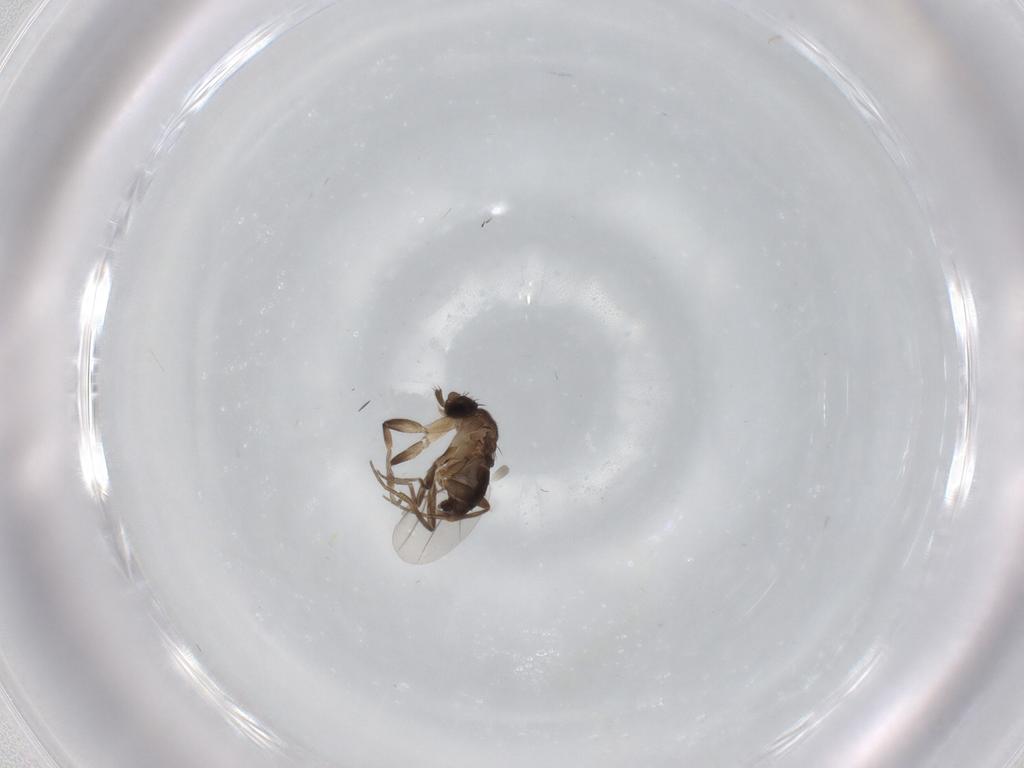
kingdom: Animalia
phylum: Arthropoda
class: Insecta
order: Diptera
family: Phoridae
